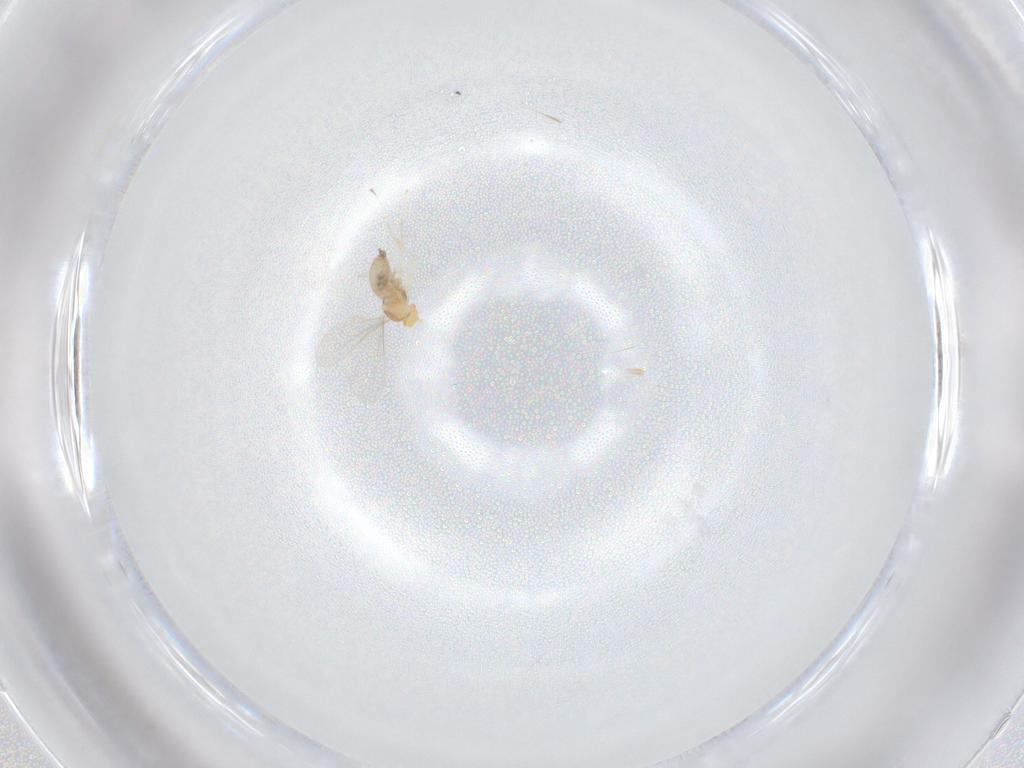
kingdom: Animalia
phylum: Arthropoda
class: Insecta
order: Diptera
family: Cecidomyiidae
